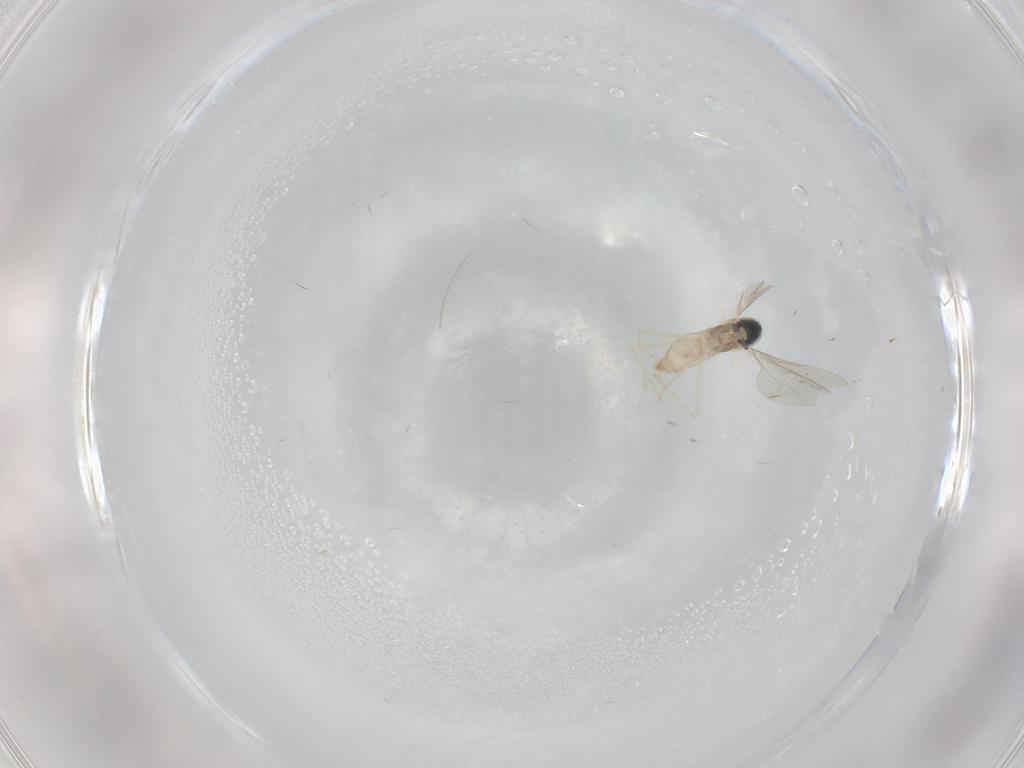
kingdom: Animalia
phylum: Arthropoda
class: Insecta
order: Diptera
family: Cecidomyiidae
